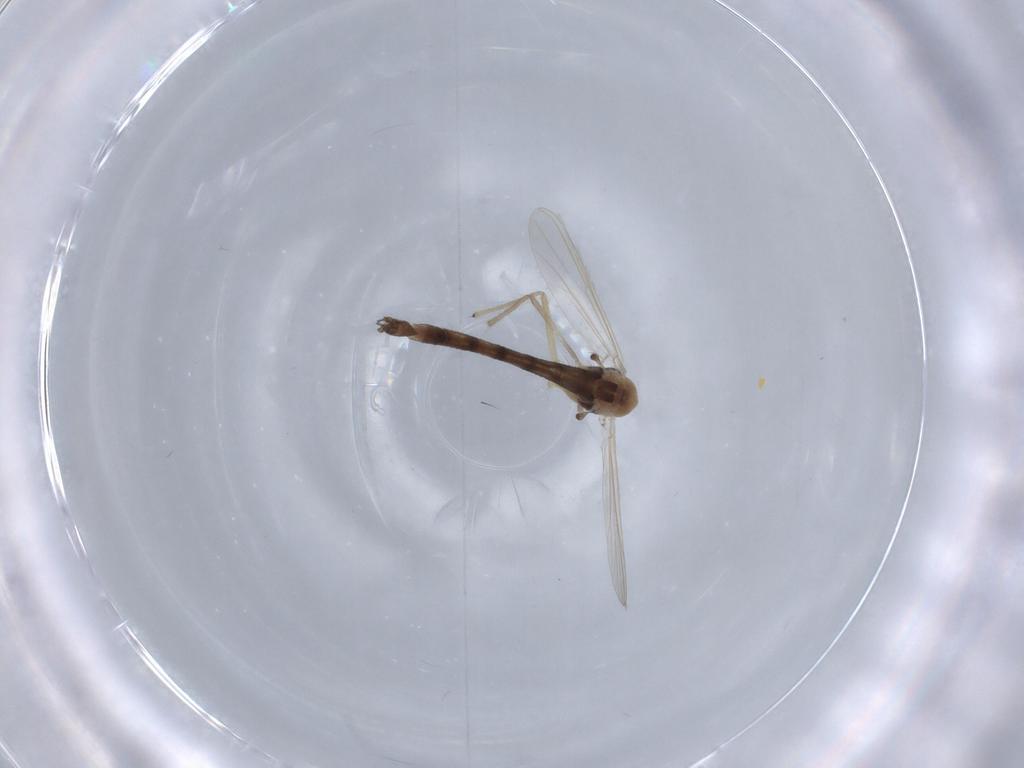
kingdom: Animalia
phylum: Arthropoda
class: Insecta
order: Diptera
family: Chironomidae
